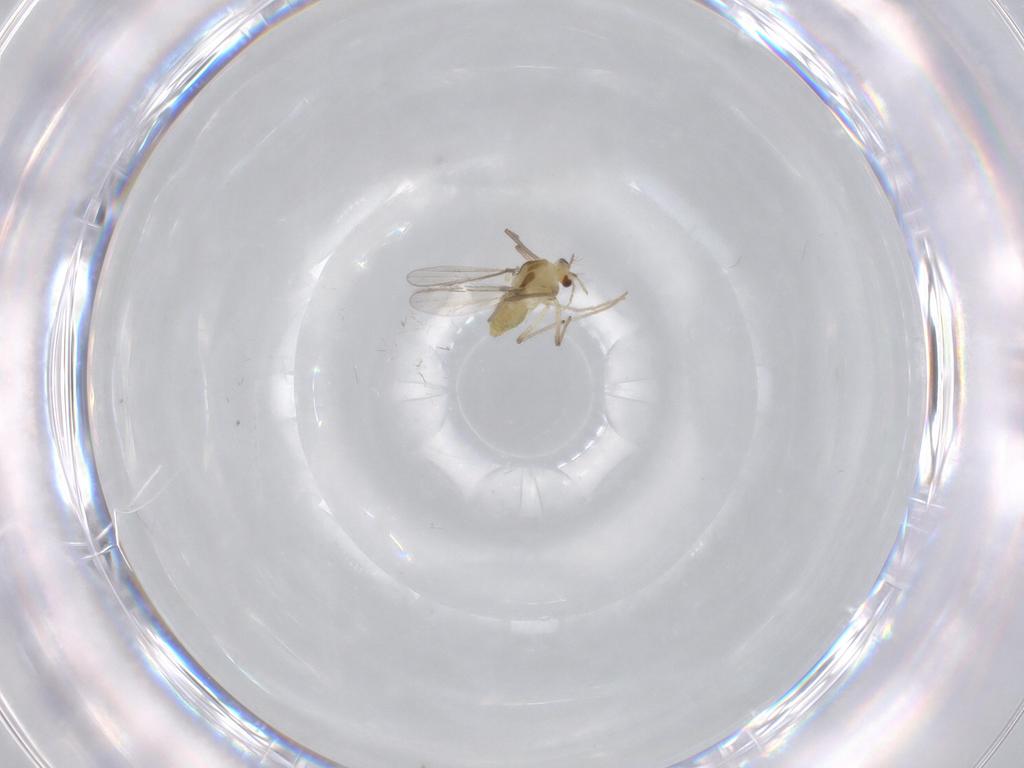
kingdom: Animalia
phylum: Arthropoda
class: Insecta
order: Diptera
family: Chironomidae
